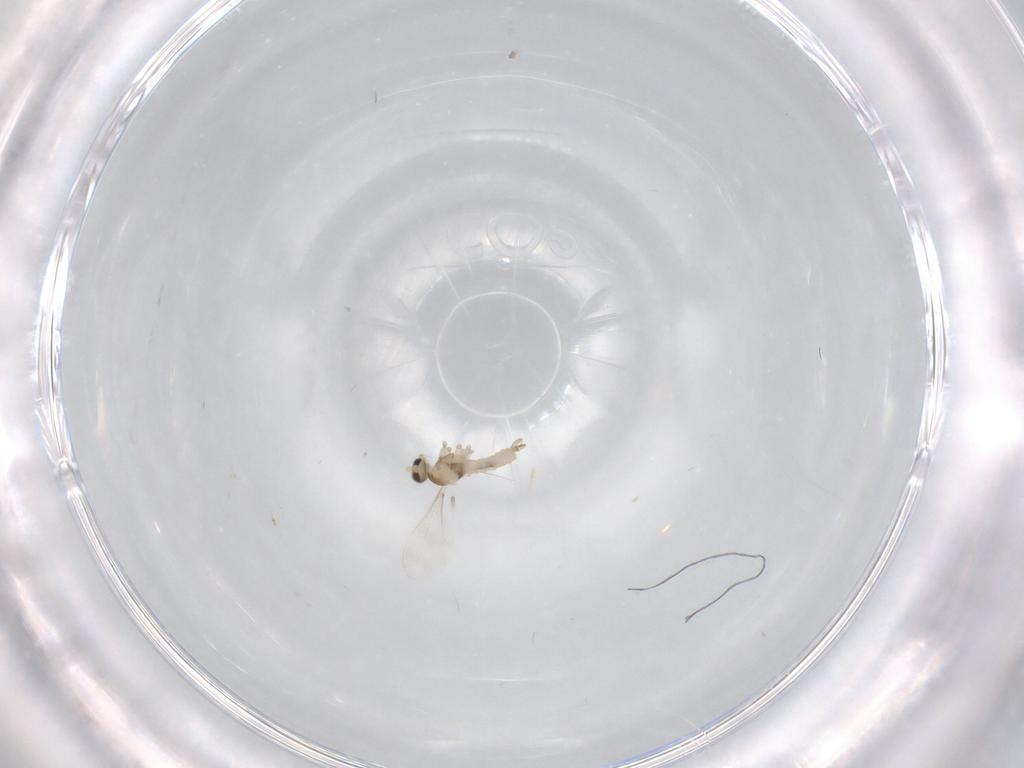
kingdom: Animalia
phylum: Arthropoda
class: Insecta
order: Diptera
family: Cecidomyiidae
